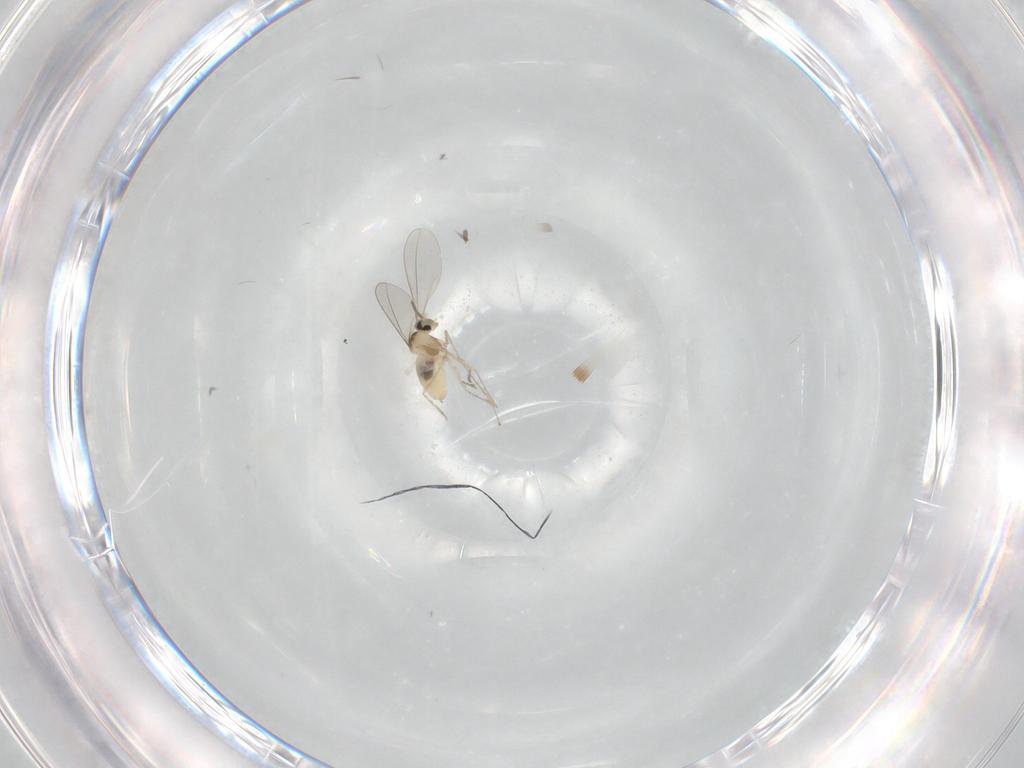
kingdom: Animalia
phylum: Arthropoda
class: Insecta
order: Diptera
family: Cecidomyiidae
